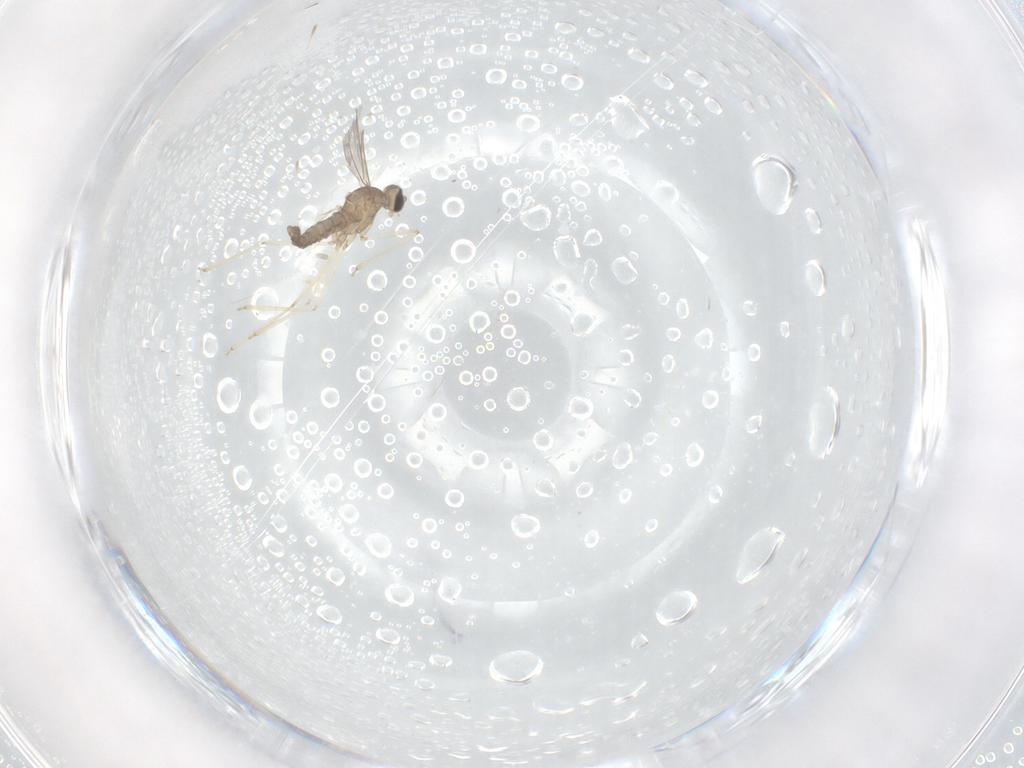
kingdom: Animalia
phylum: Arthropoda
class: Insecta
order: Diptera
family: Cecidomyiidae
